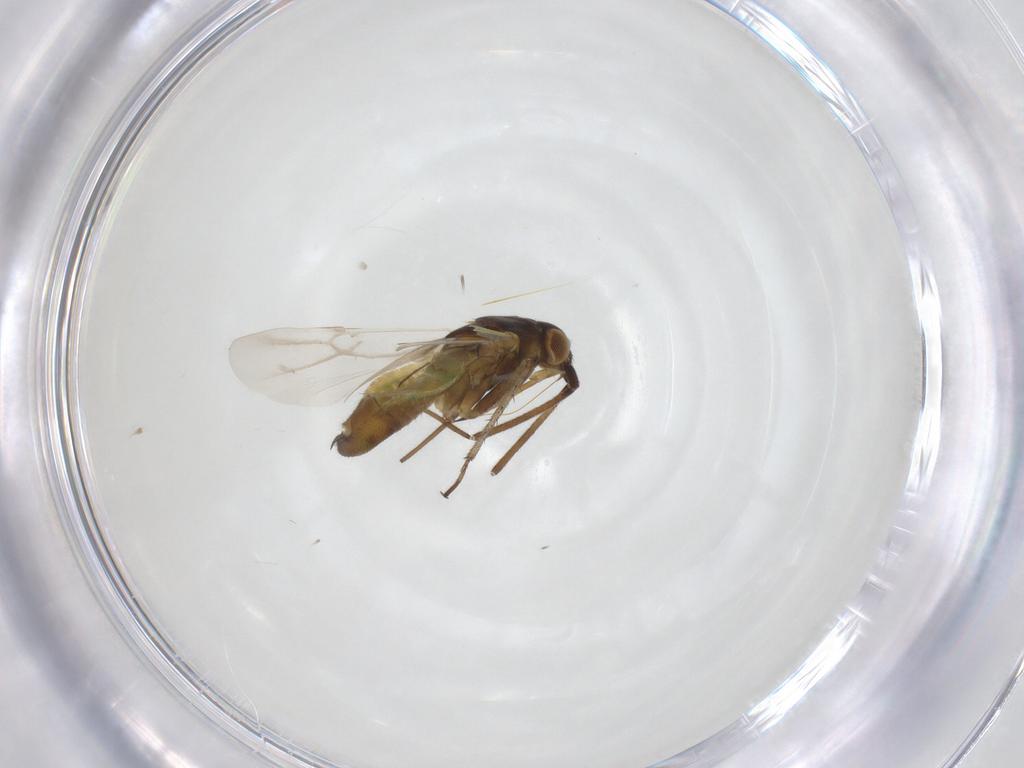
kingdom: Animalia
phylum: Arthropoda
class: Insecta
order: Hemiptera
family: Miridae
